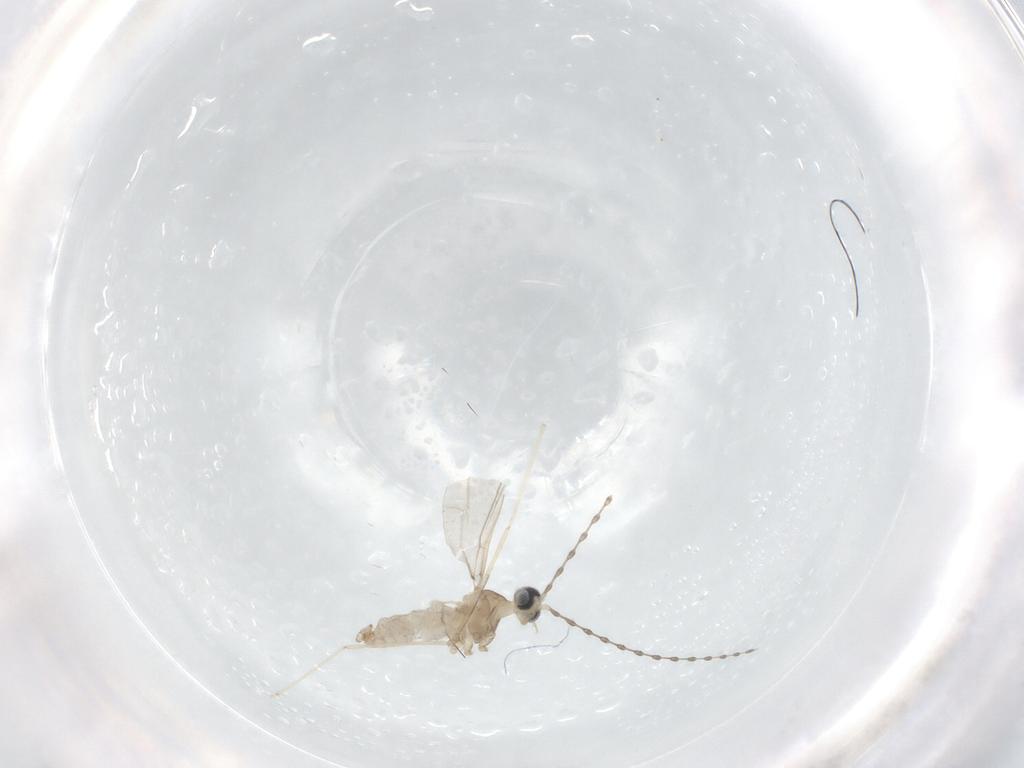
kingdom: Animalia
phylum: Arthropoda
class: Insecta
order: Diptera
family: Cecidomyiidae
